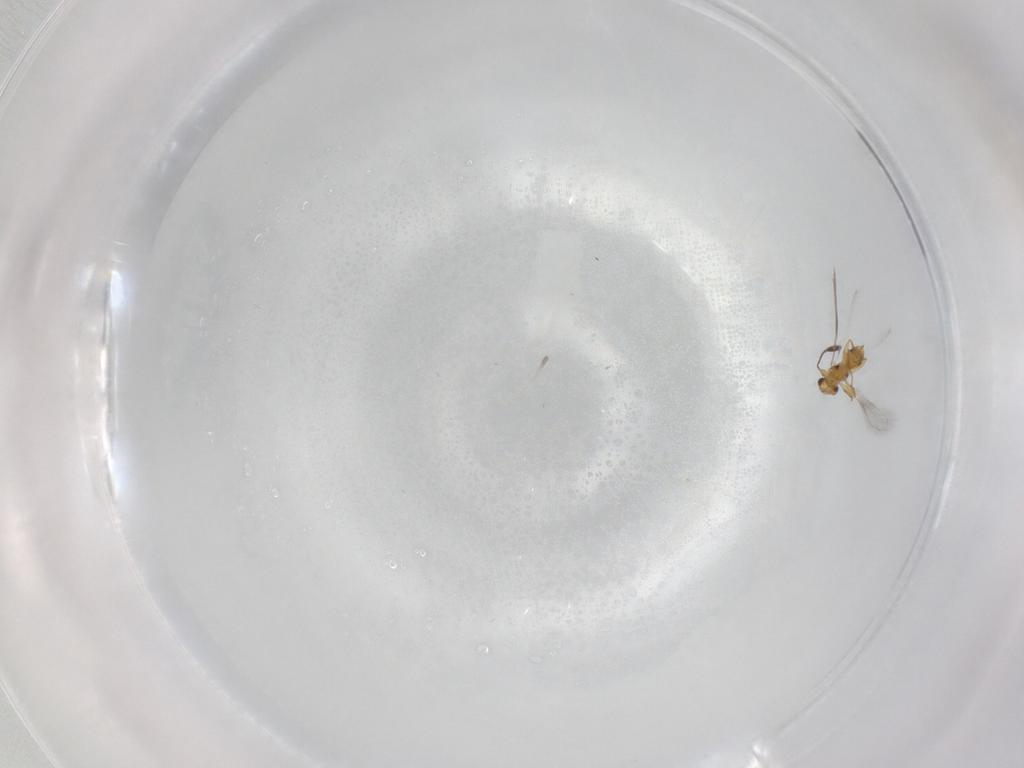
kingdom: Animalia
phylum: Arthropoda
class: Insecta
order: Hymenoptera
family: Mymaridae
